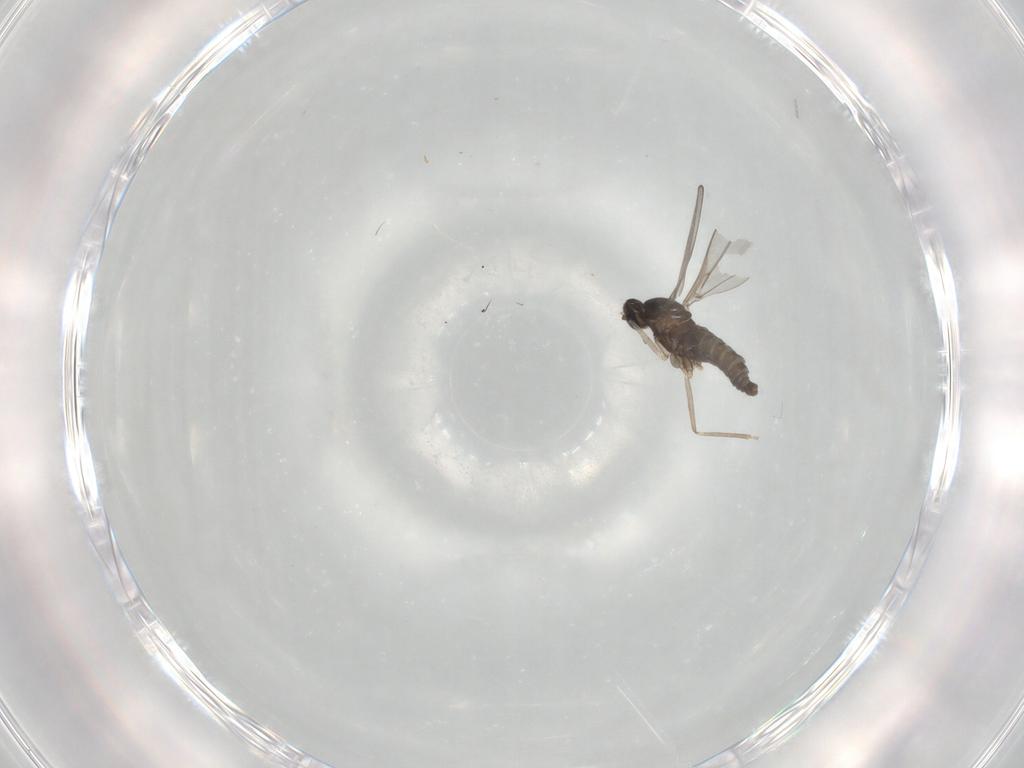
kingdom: Animalia
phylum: Arthropoda
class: Insecta
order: Diptera
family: Cecidomyiidae
